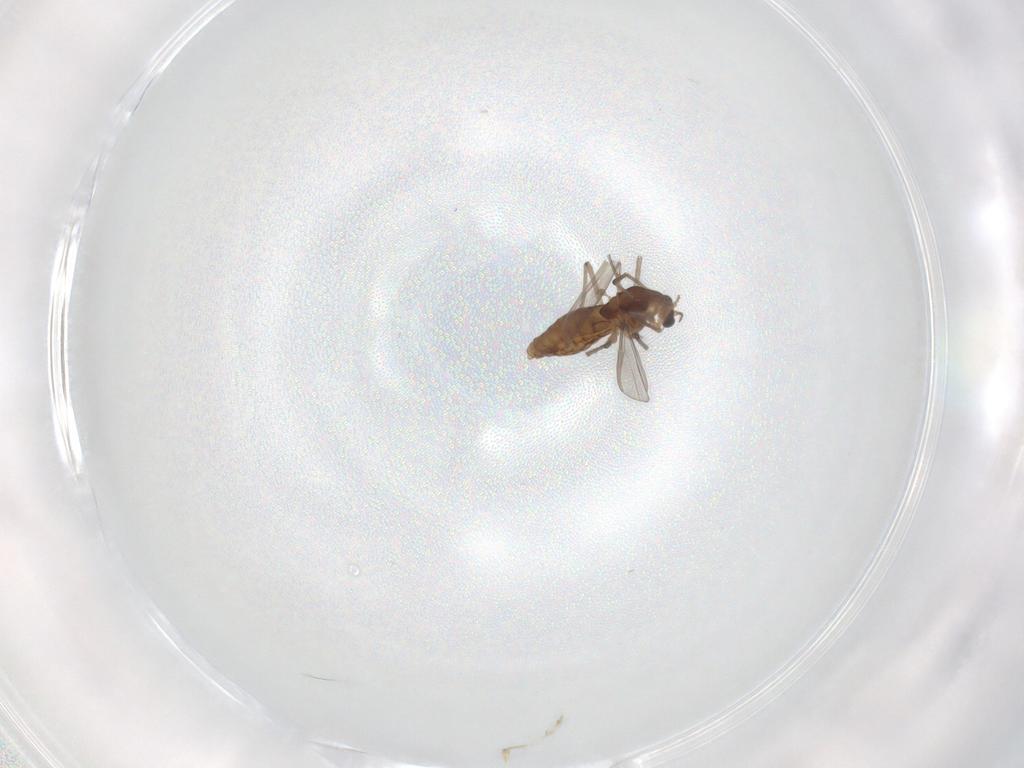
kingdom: Animalia
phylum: Arthropoda
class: Insecta
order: Diptera
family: Chironomidae
